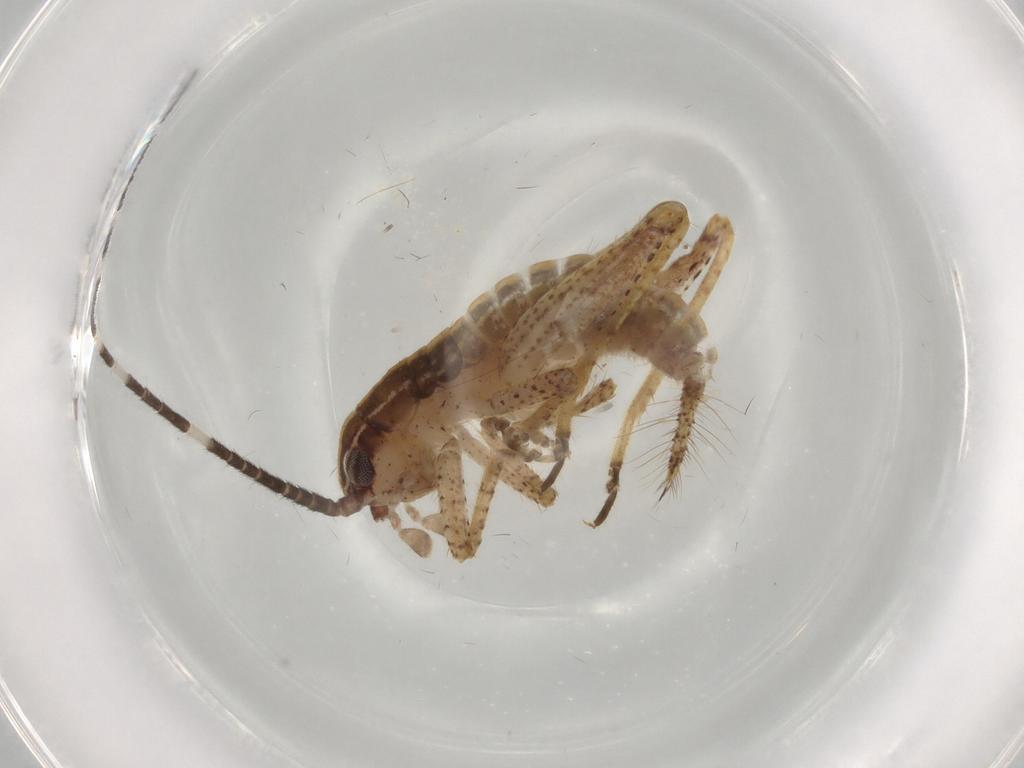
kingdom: Animalia
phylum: Arthropoda
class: Insecta
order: Orthoptera
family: Gryllidae
